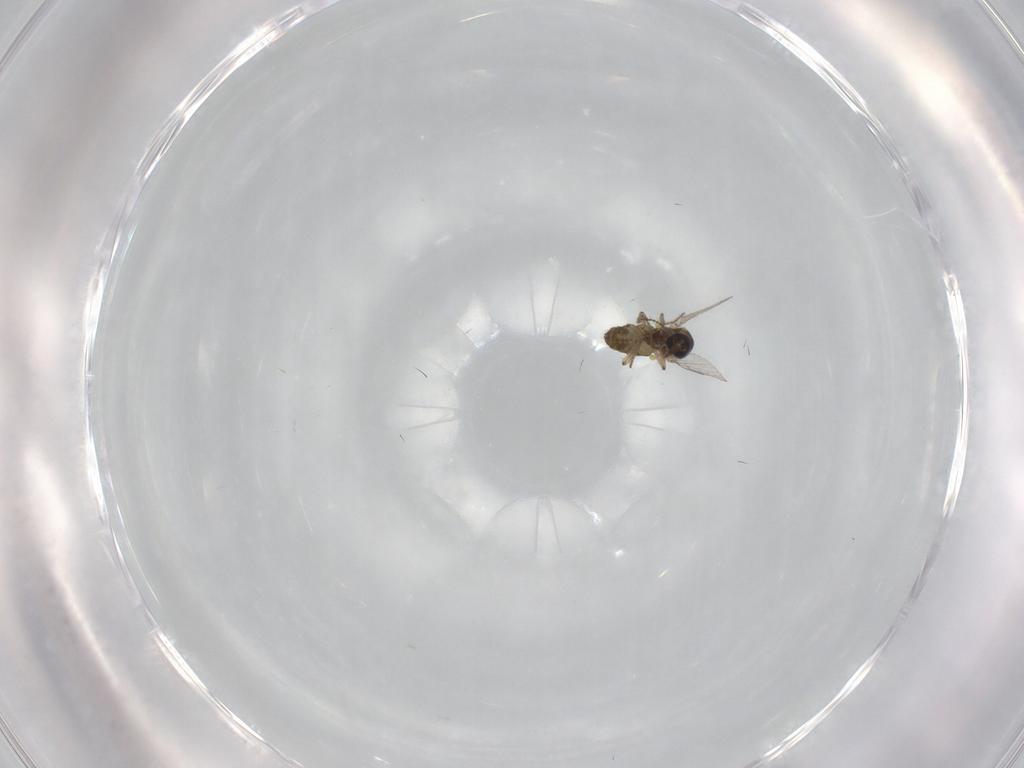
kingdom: Animalia
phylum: Arthropoda
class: Insecta
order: Diptera
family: Ceratopogonidae
